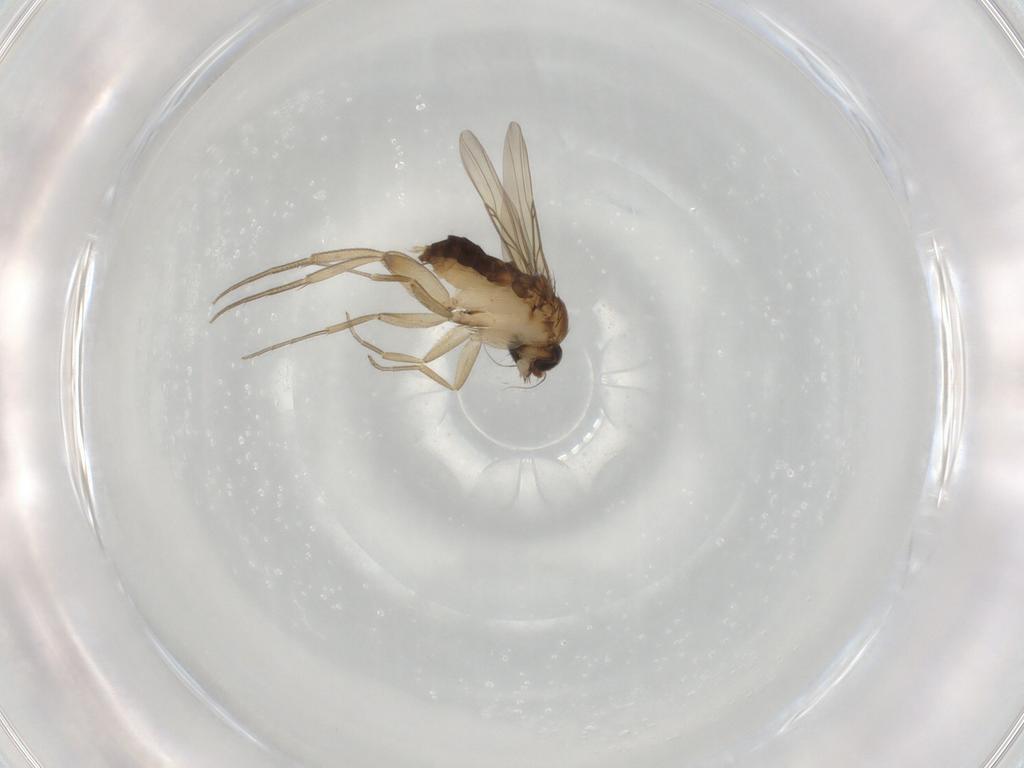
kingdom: Animalia
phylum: Arthropoda
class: Insecta
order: Diptera
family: Phoridae
